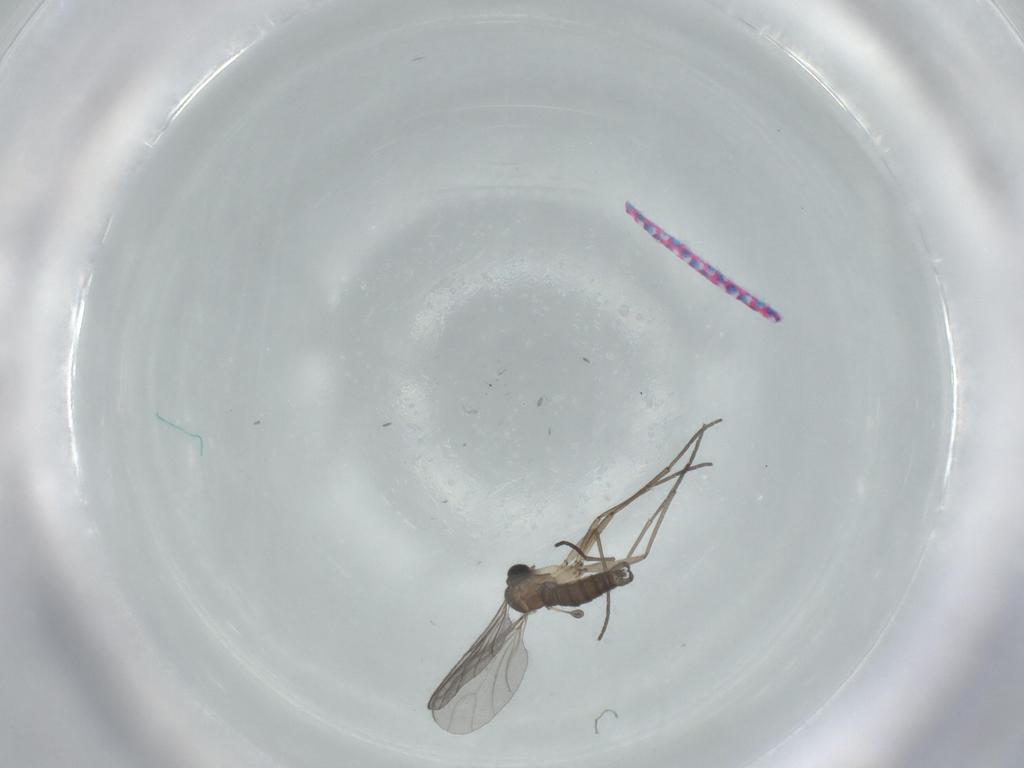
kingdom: Animalia
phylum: Arthropoda
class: Insecta
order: Diptera
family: Sciaridae
